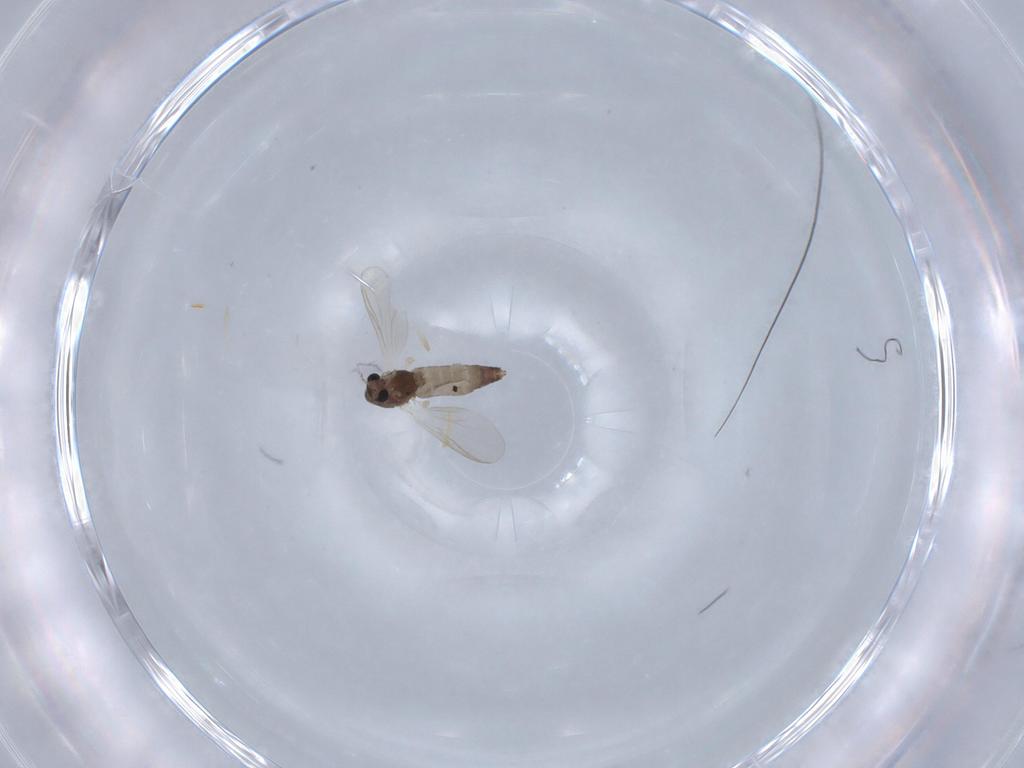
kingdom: Animalia
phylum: Arthropoda
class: Insecta
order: Diptera
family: Chironomidae
